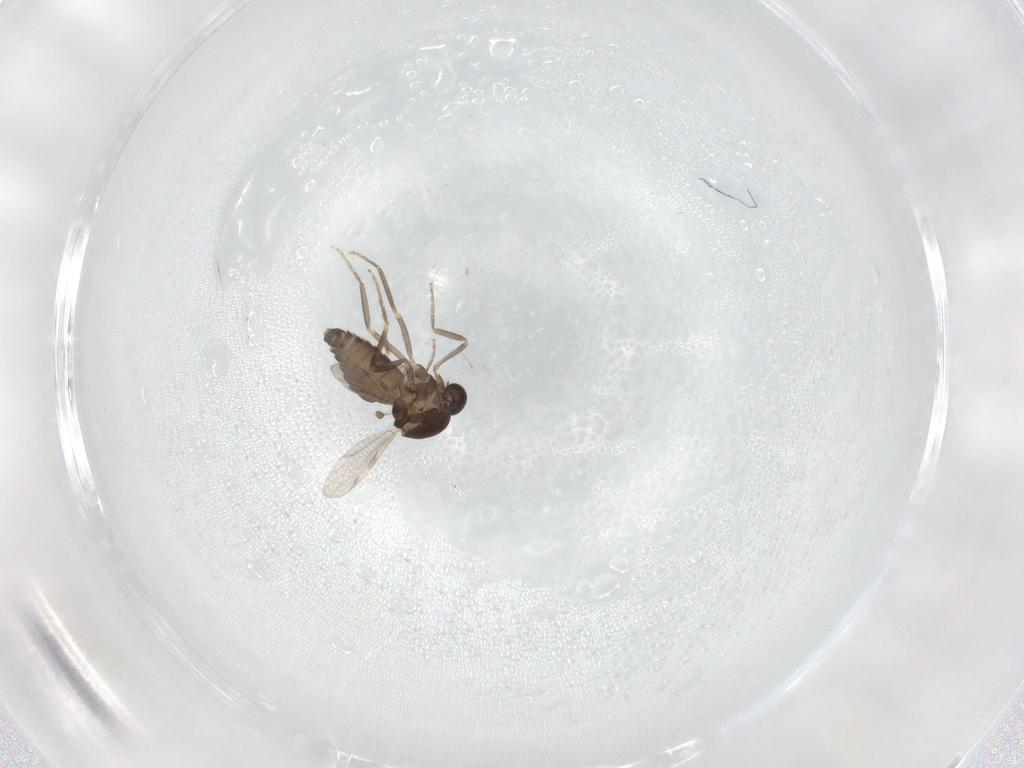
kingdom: Animalia
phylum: Arthropoda
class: Insecta
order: Diptera
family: Ceratopogonidae
